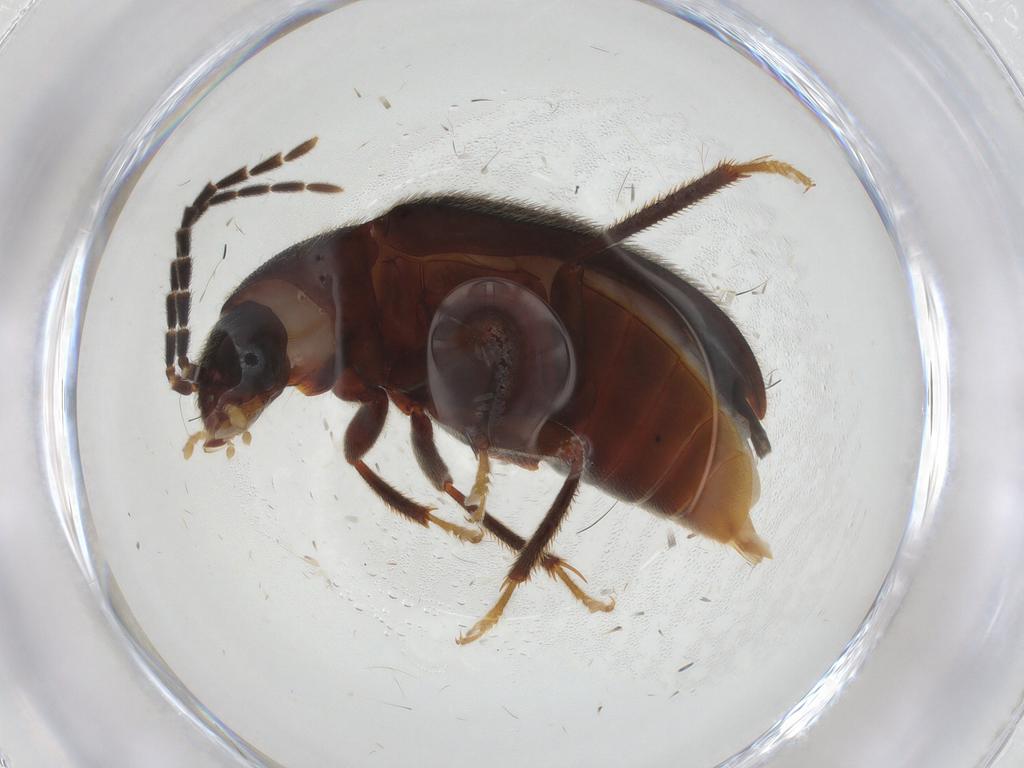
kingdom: Animalia
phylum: Arthropoda
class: Insecta
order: Coleoptera
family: Ptilodactylidae
